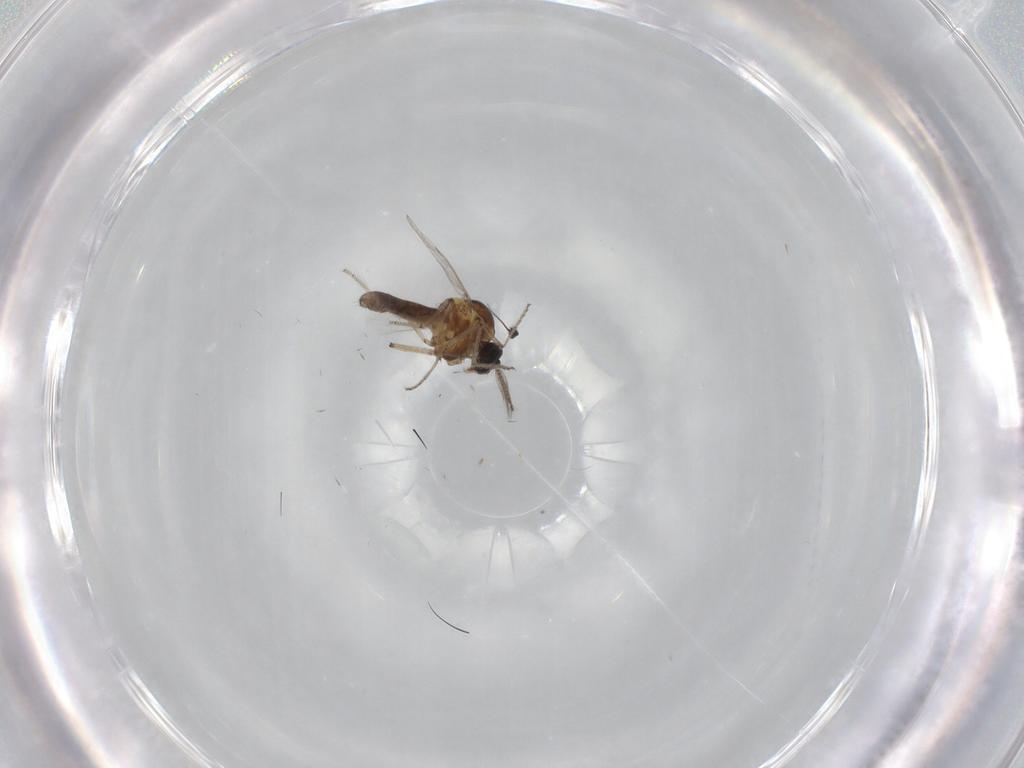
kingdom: Animalia
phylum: Arthropoda
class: Insecta
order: Diptera
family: Ceratopogonidae
